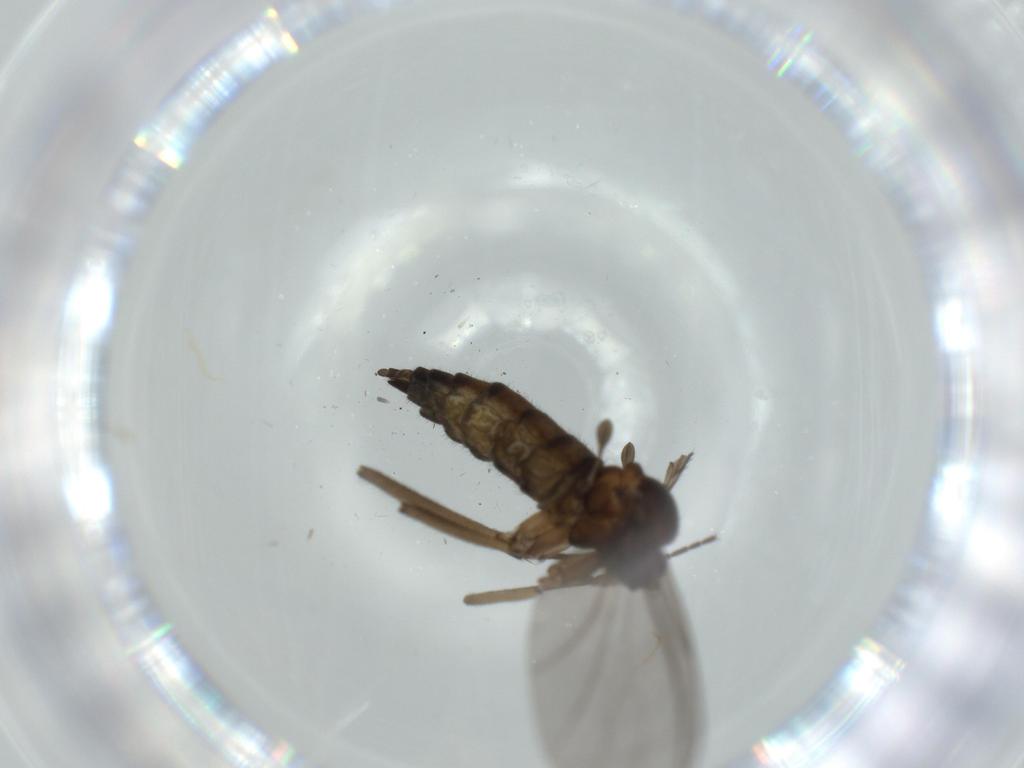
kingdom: Animalia
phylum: Arthropoda
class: Insecta
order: Diptera
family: Sciaridae
